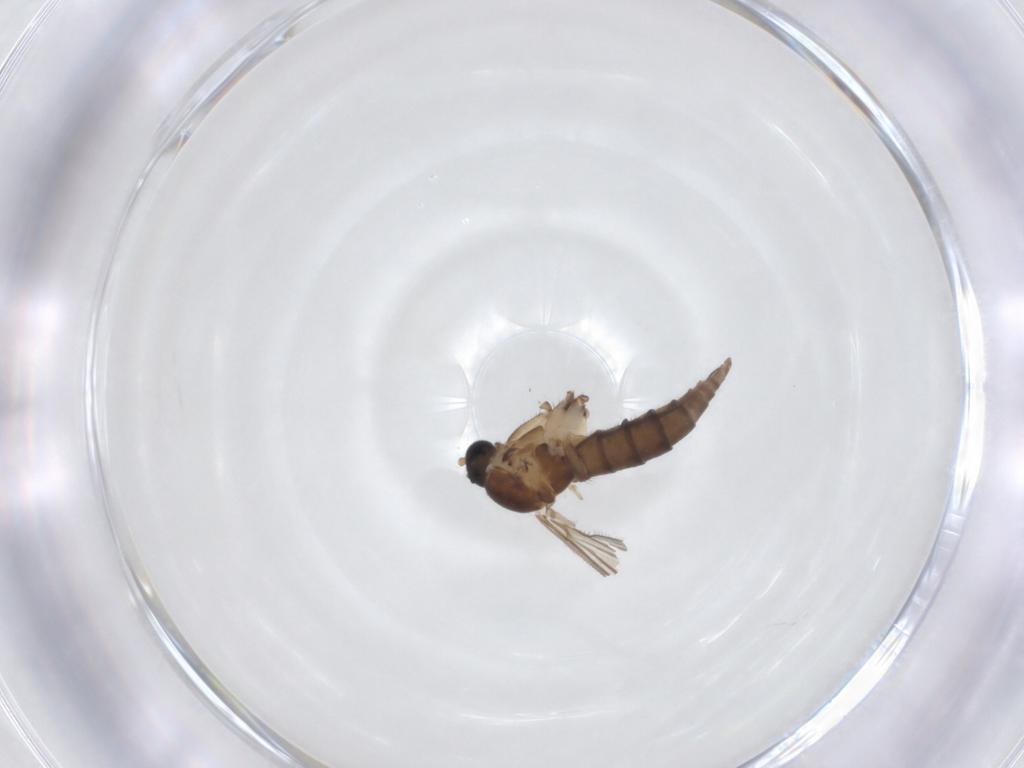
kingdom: Animalia
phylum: Arthropoda
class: Insecta
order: Diptera
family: Sciaridae
